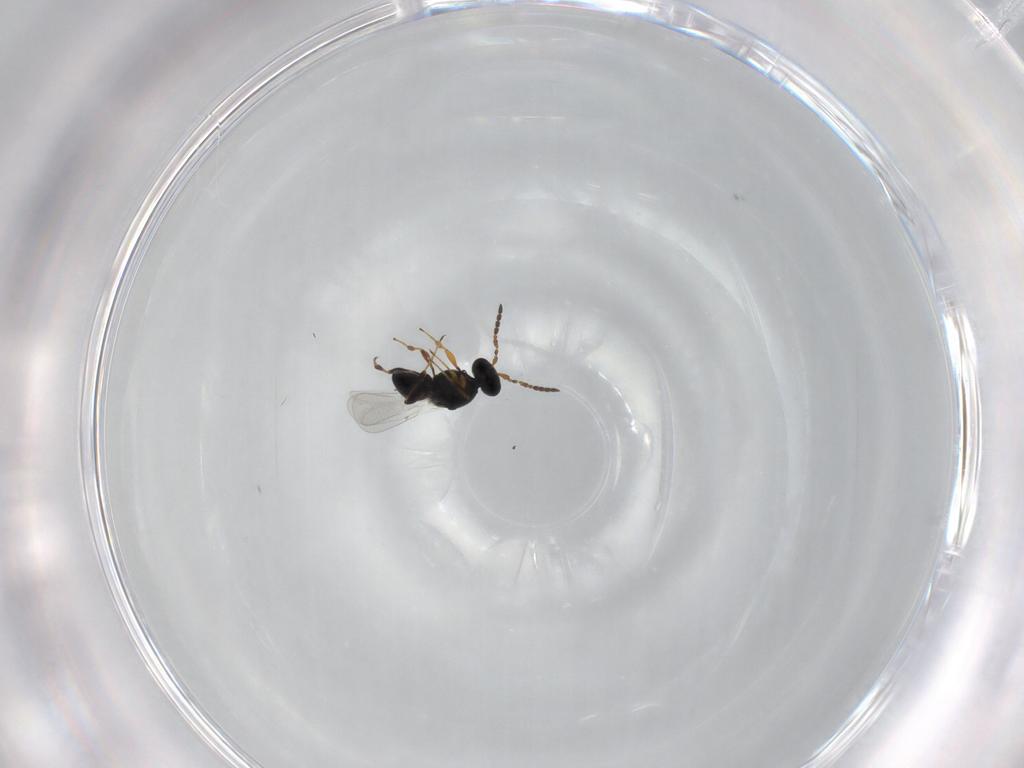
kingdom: Animalia
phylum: Arthropoda
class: Insecta
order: Hymenoptera
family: Platygastridae
